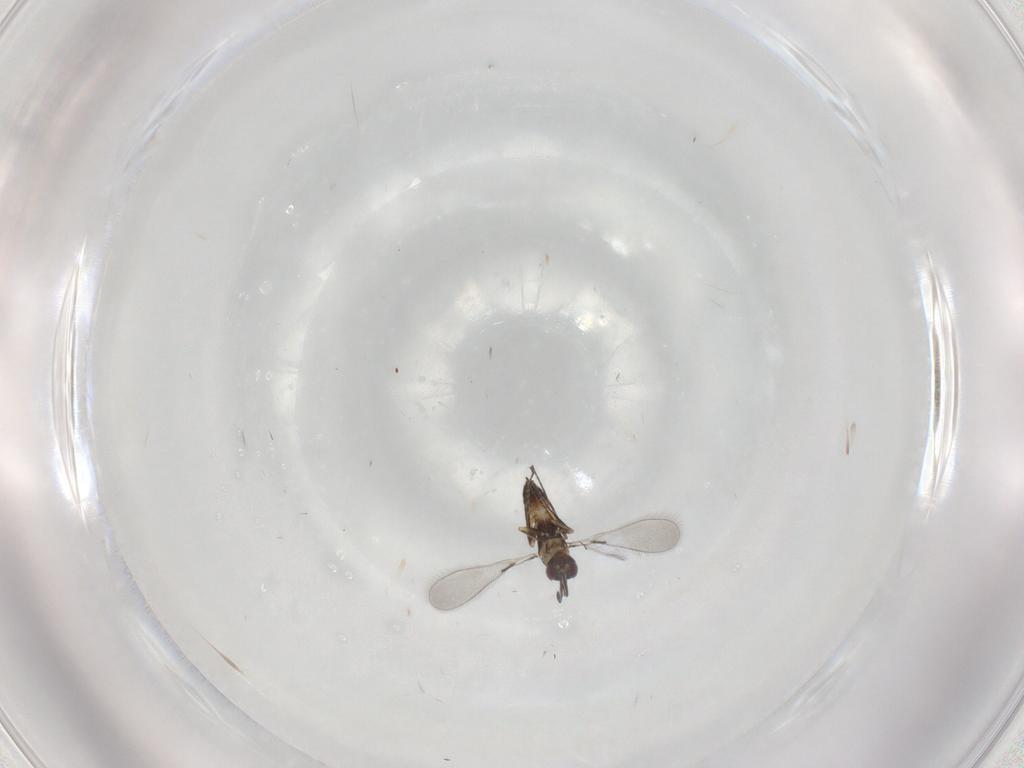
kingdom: Animalia
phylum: Arthropoda
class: Insecta
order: Hymenoptera
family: Mymaridae
